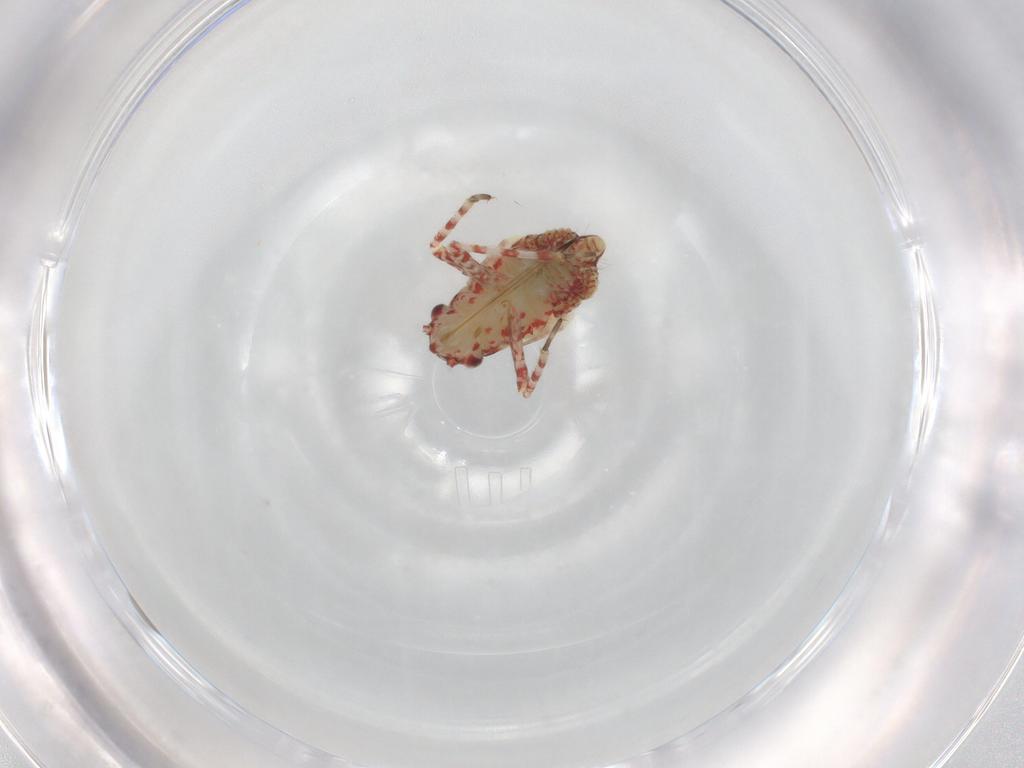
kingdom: Animalia
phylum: Arthropoda
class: Insecta
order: Hemiptera
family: Miridae
